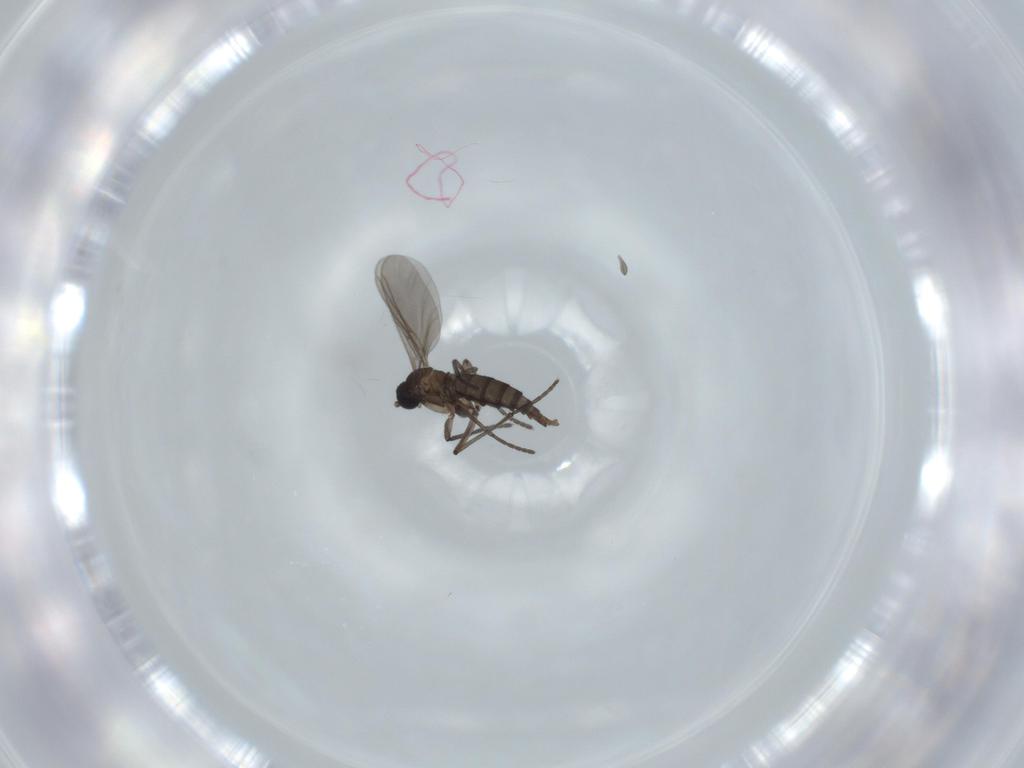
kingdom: Animalia
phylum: Arthropoda
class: Insecta
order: Diptera
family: Sciaridae
